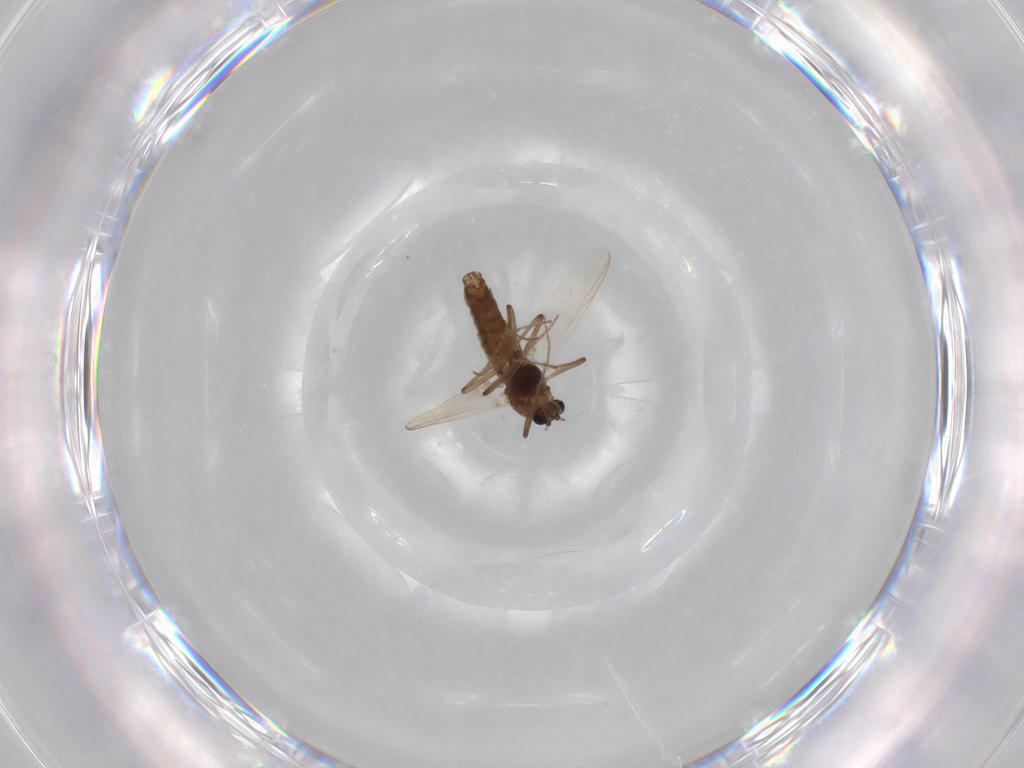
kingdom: Animalia
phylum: Arthropoda
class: Insecta
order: Diptera
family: Chironomidae
